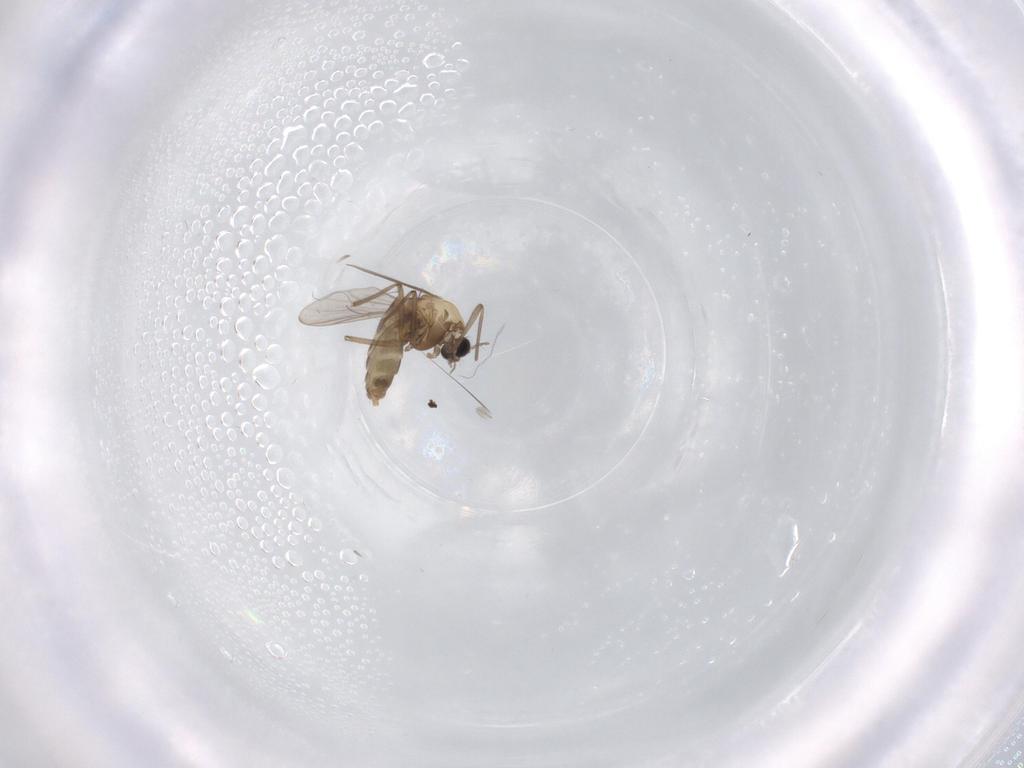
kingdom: Animalia
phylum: Arthropoda
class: Insecta
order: Diptera
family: Chironomidae
